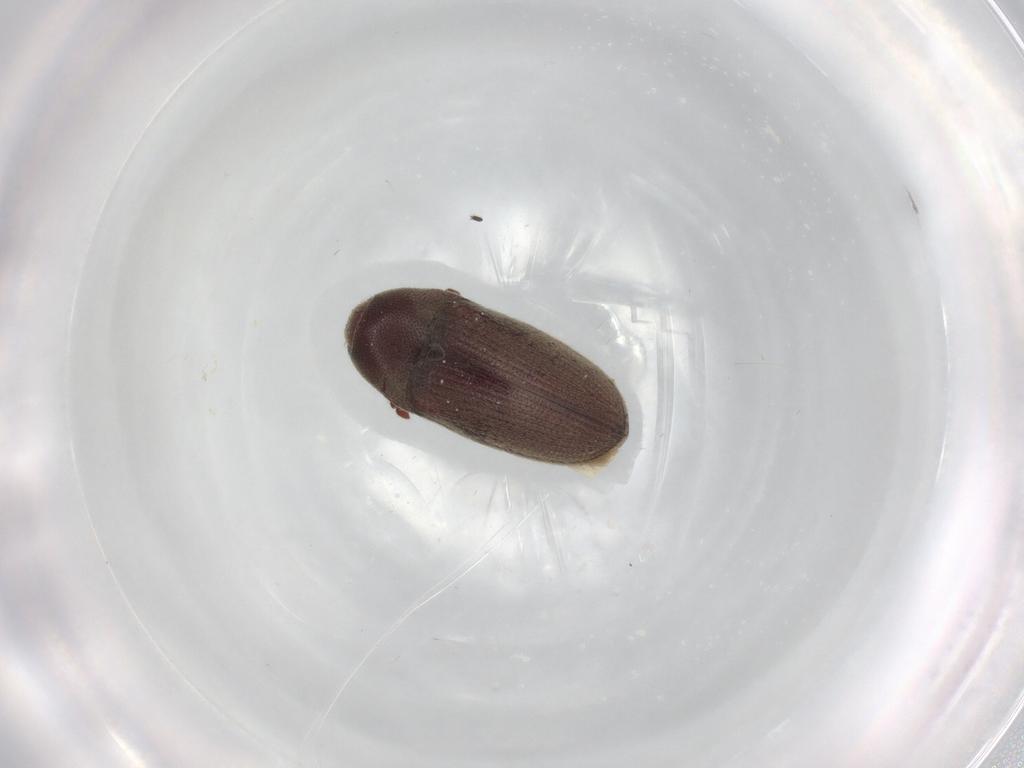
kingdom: Animalia
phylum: Arthropoda
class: Insecta
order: Coleoptera
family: Throscidae
